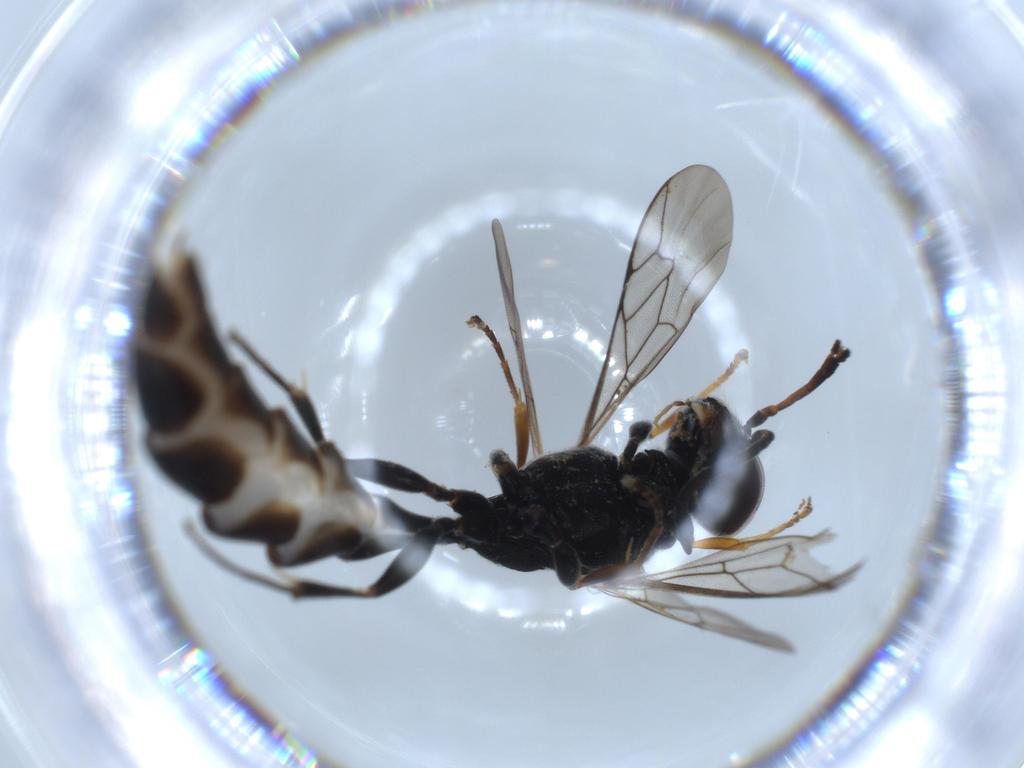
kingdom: Animalia
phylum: Arthropoda
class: Insecta
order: Hymenoptera
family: Crabronidae
